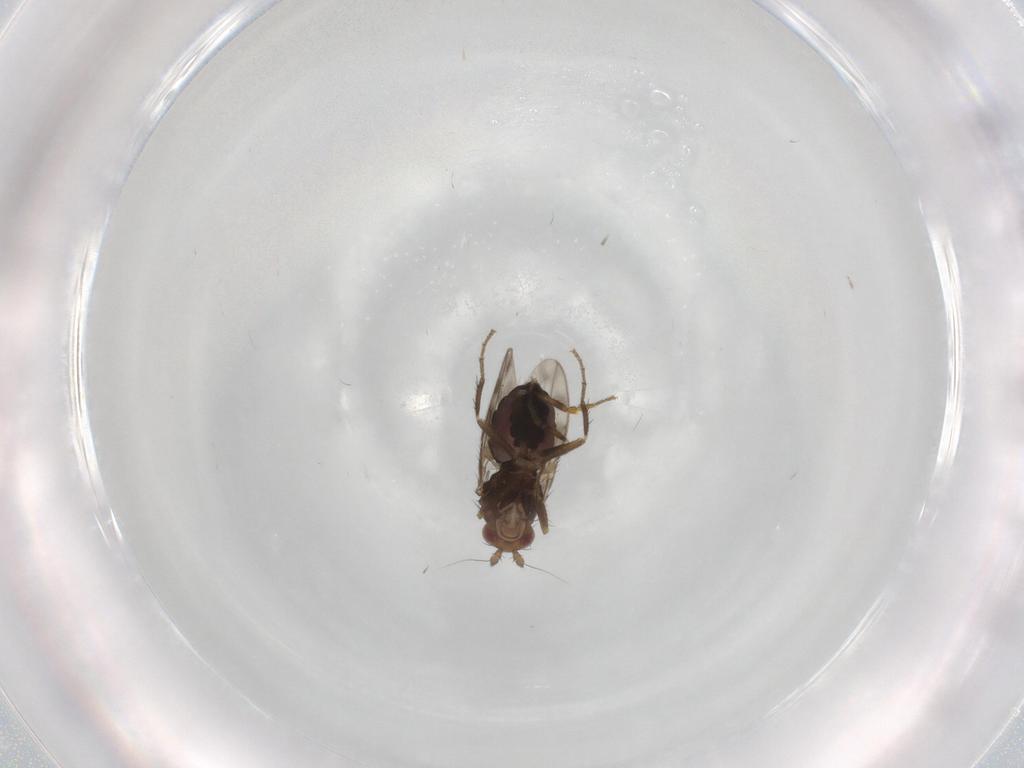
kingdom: Animalia
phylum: Arthropoda
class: Insecta
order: Diptera
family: Sphaeroceridae
